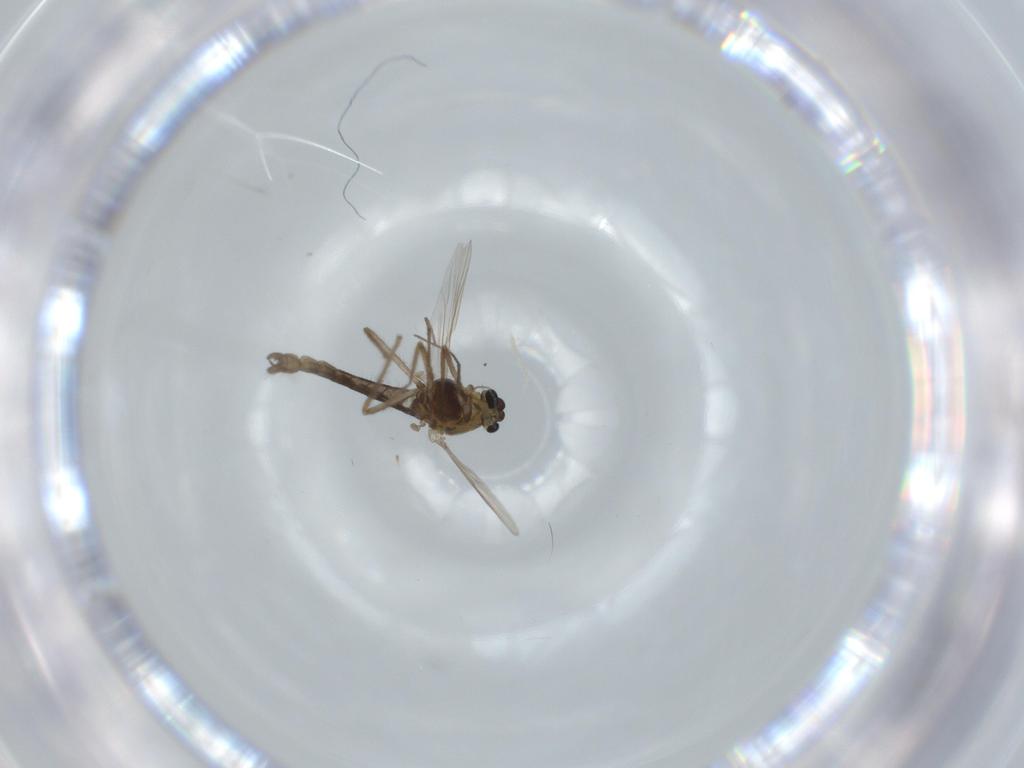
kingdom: Animalia
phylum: Arthropoda
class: Insecta
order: Diptera
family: Chironomidae
